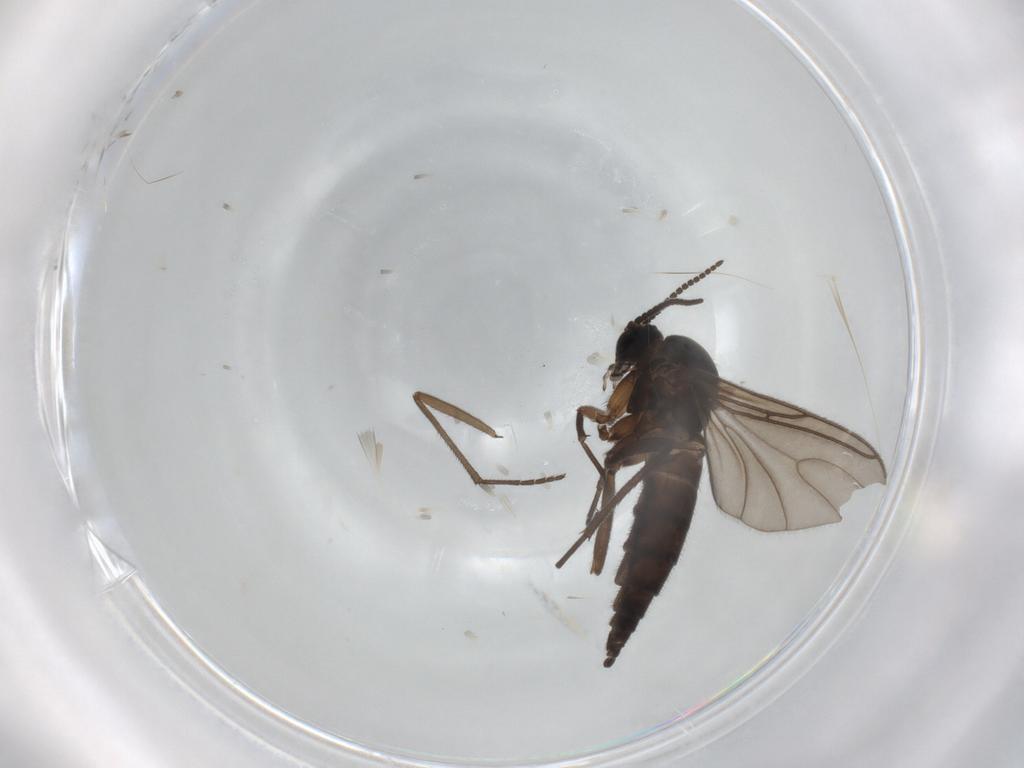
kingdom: Animalia
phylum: Arthropoda
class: Insecta
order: Diptera
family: Sciaridae
